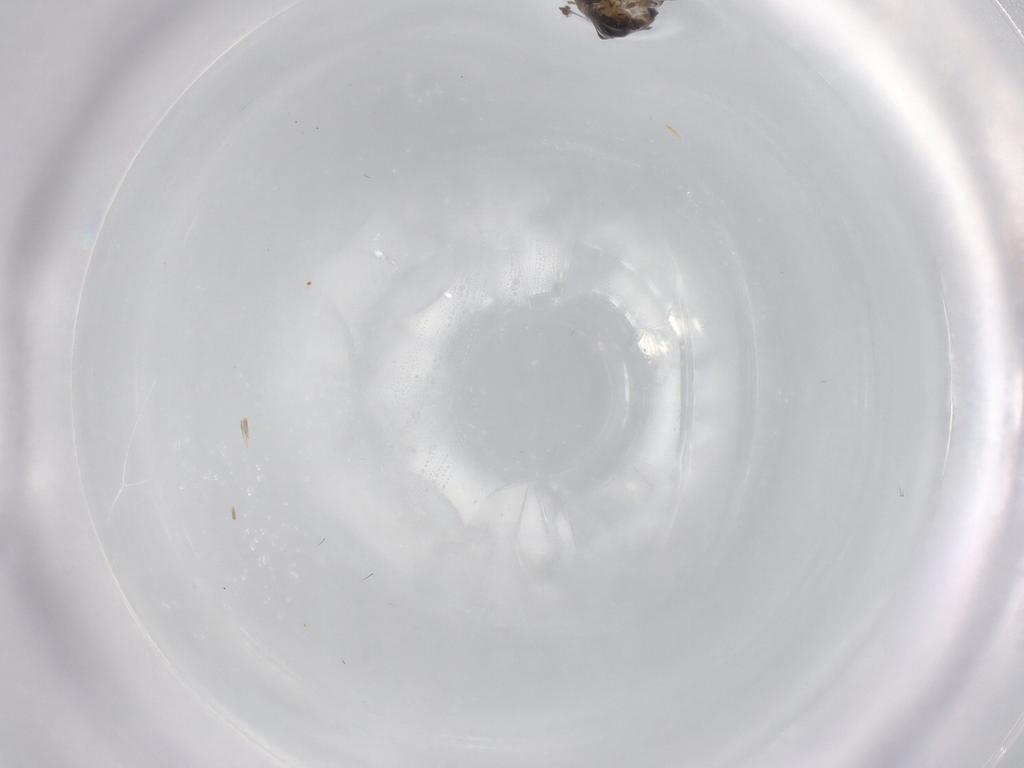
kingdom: Animalia
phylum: Arthropoda
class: Insecta
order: Diptera
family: Psychodidae
